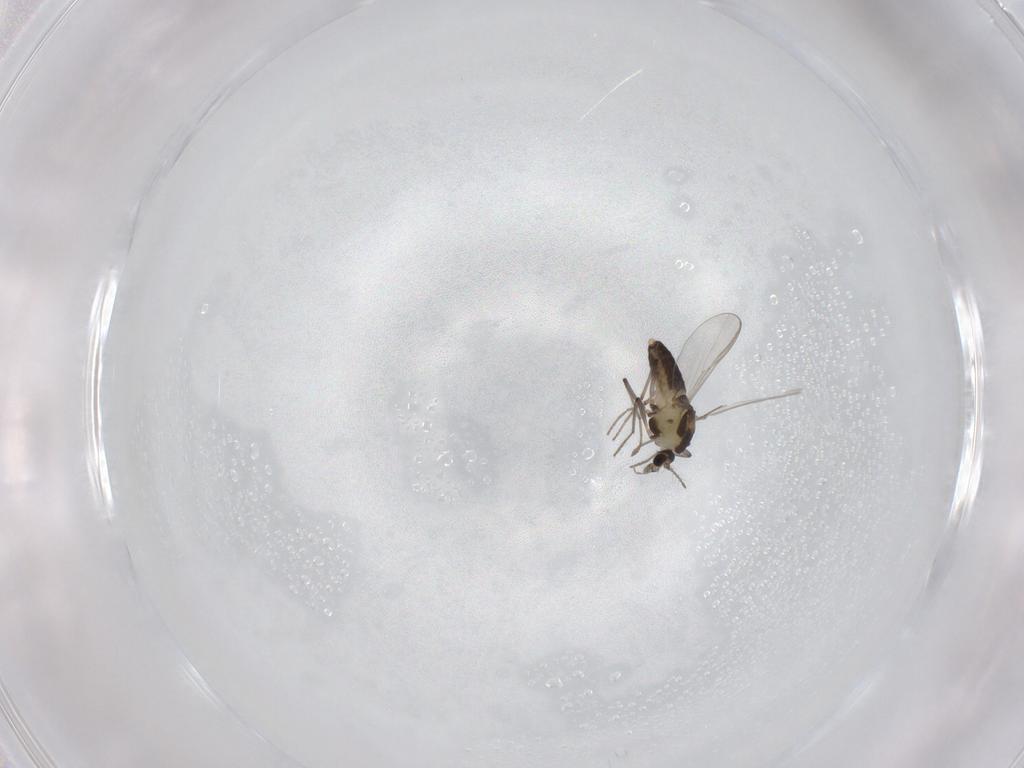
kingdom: Animalia
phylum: Arthropoda
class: Insecta
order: Diptera
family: Chironomidae
